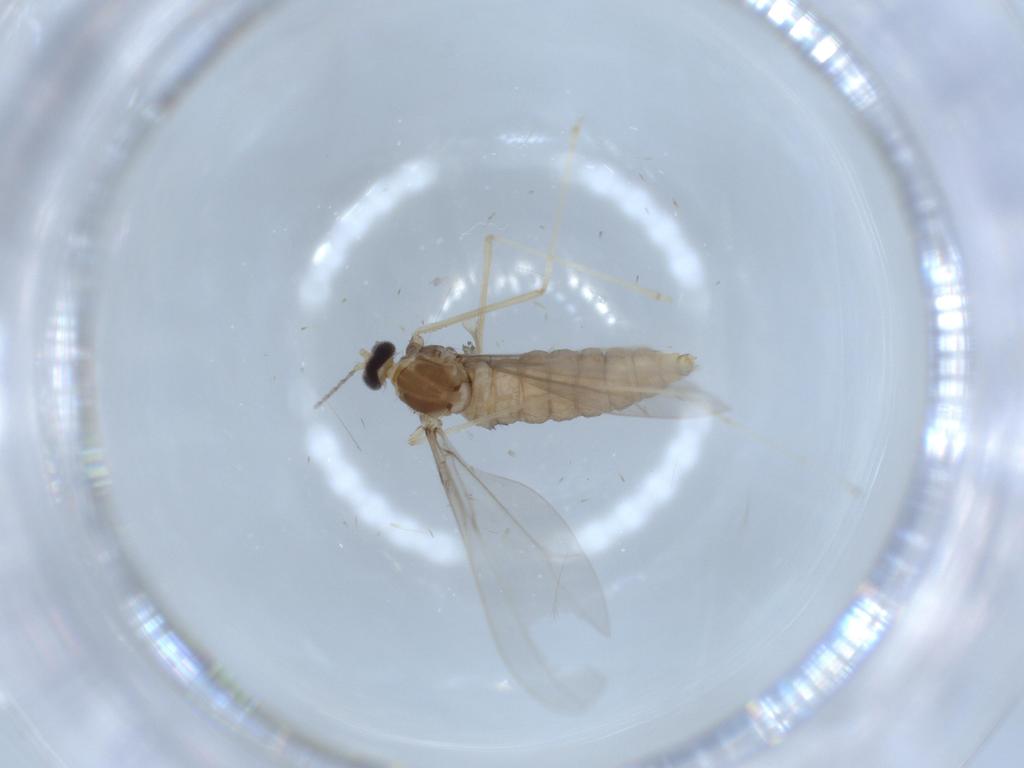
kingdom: Animalia
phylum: Arthropoda
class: Insecta
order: Diptera
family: Cecidomyiidae
